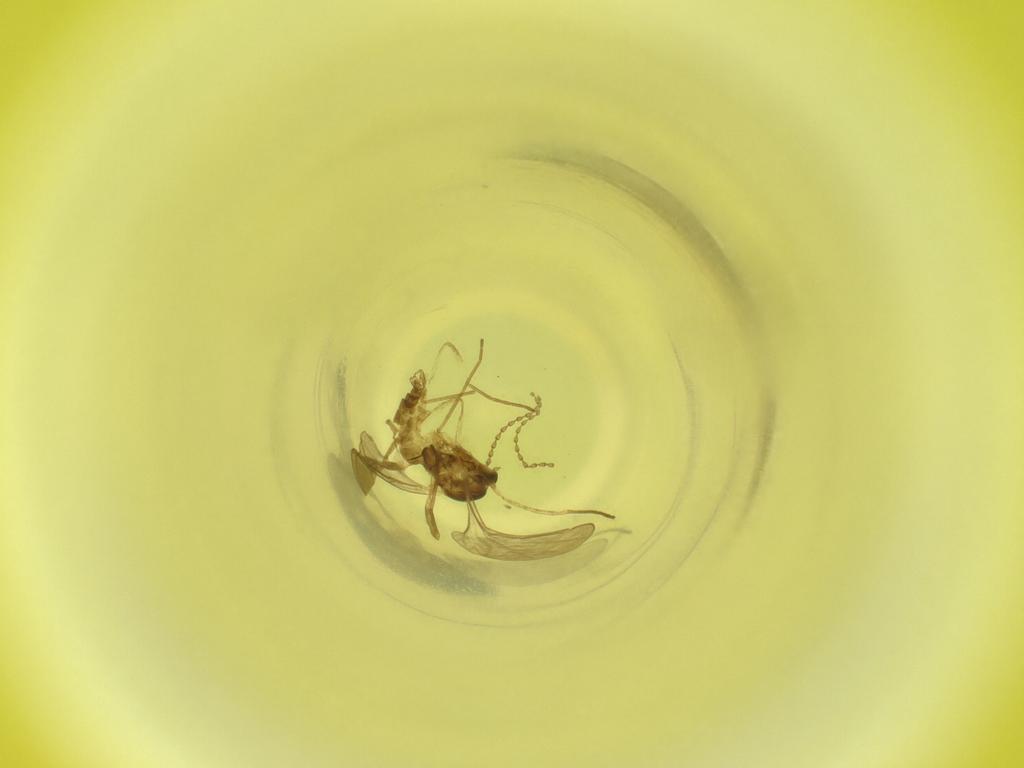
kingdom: Animalia
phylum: Arthropoda
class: Insecta
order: Diptera
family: Cecidomyiidae
